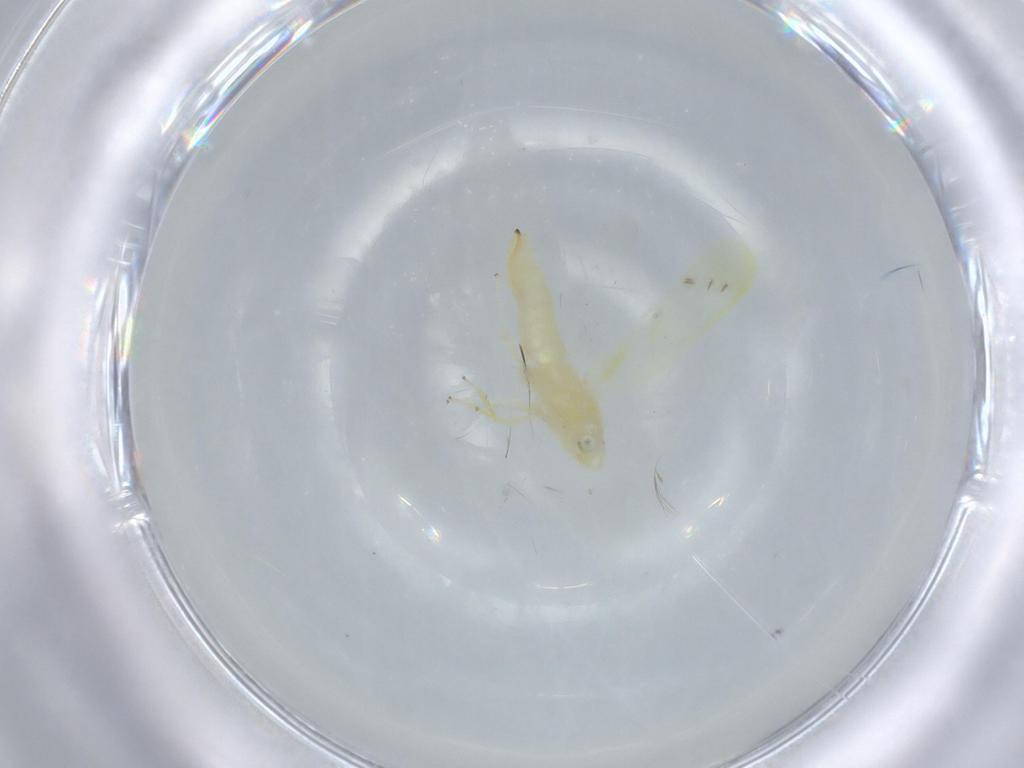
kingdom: Animalia
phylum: Arthropoda
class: Insecta
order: Hemiptera
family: Cicadellidae
